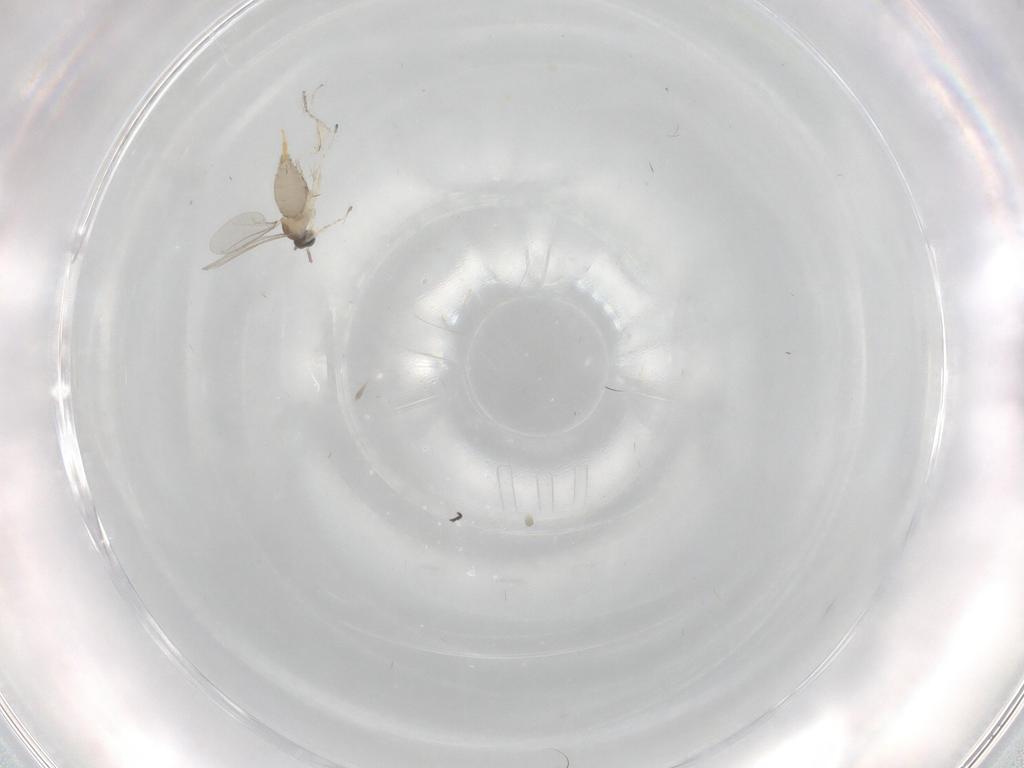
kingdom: Animalia
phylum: Arthropoda
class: Insecta
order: Diptera
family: Cecidomyiidae
